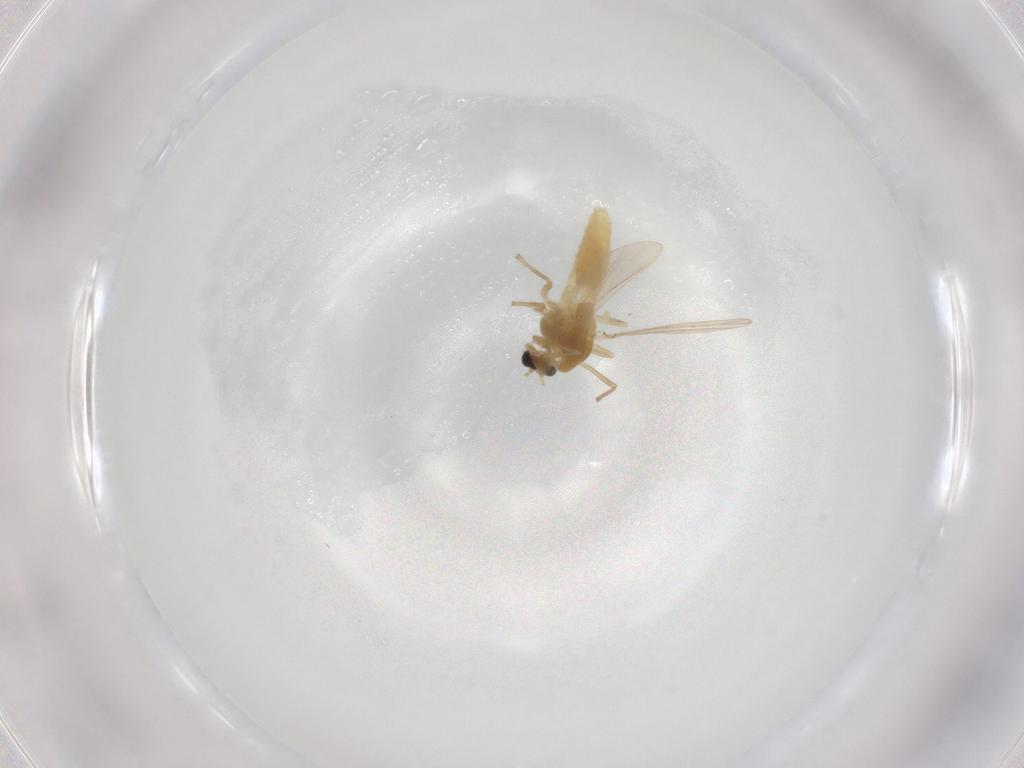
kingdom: Animalia
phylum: Arthropoda
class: Insecta
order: Diptera
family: Chironomidae
